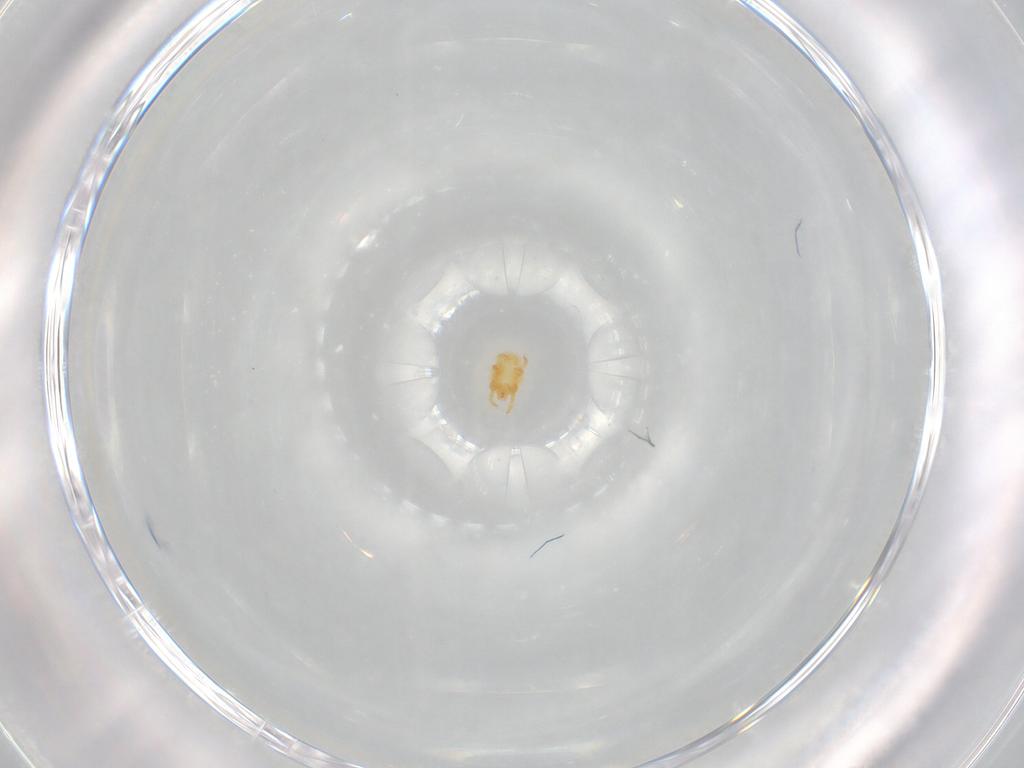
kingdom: Animalia
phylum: Arthropoda
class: Arachnida
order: Trombidiformes
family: Stigmaeidae
